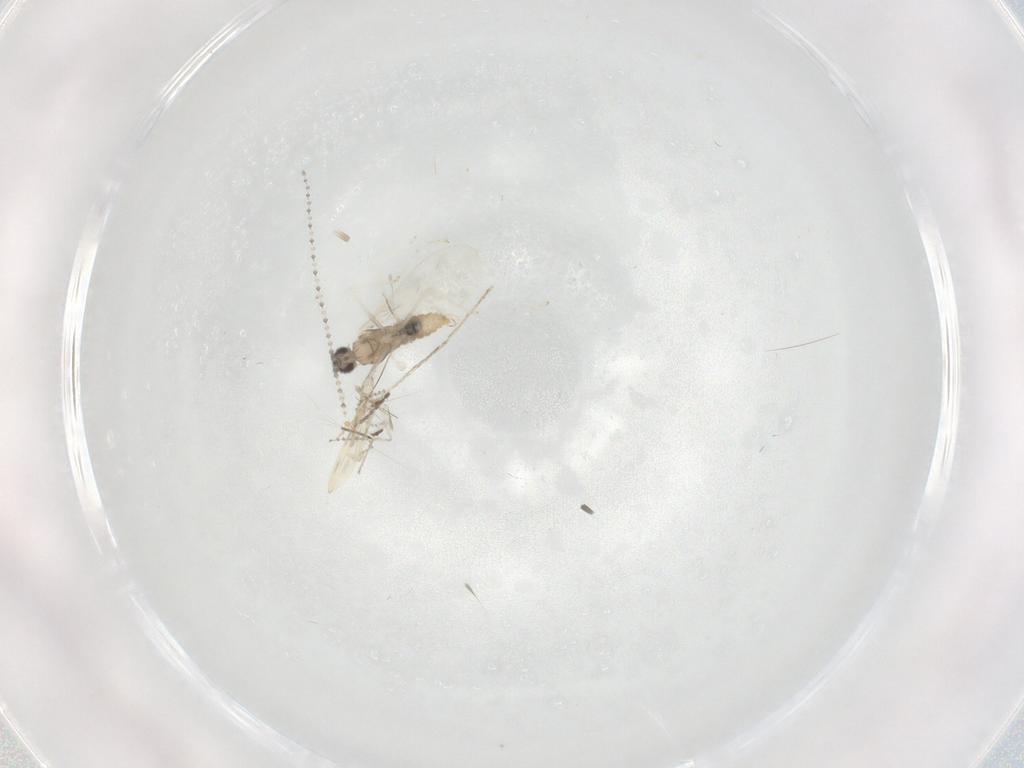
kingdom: Animalia
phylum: Arthropoda
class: Insecta
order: Diptera
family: Cecidomyiidae
